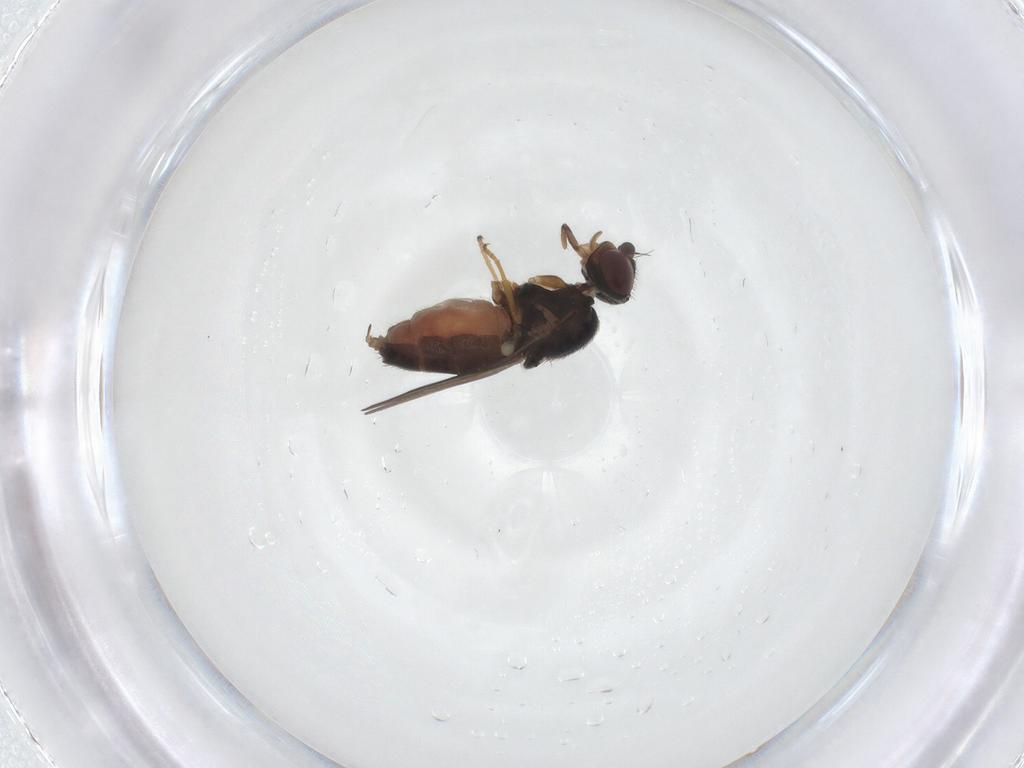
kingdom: Animalia
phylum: Arthropoda
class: Insecta
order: Diptera
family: Chloropidae
